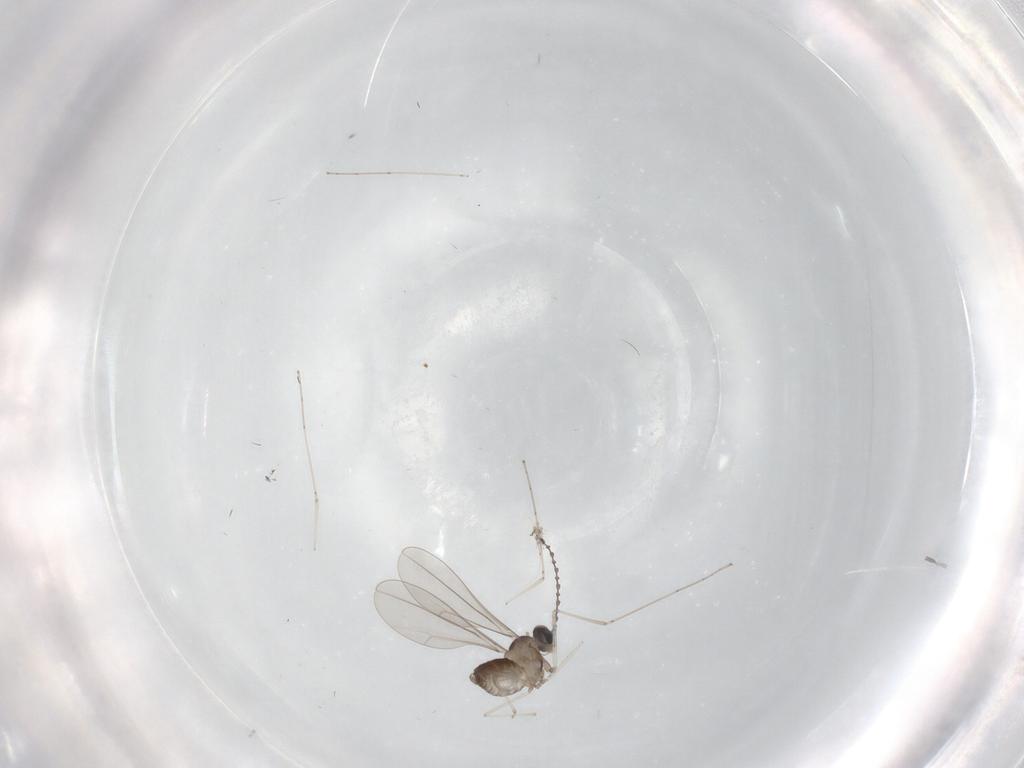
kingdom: Animalia
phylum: Arthropoda
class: Insecta
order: Diptera
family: Cecidomyiidae
